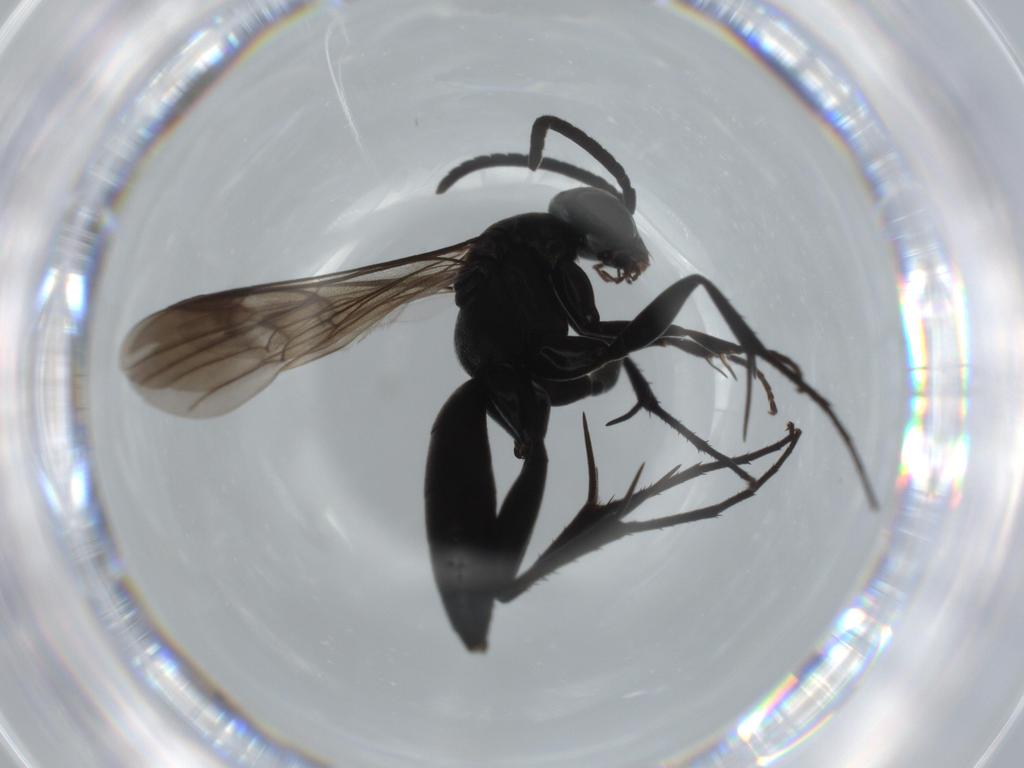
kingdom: Animalia
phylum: Arthropoda
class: Insecta
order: Hymenoptera
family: Pompilidae
